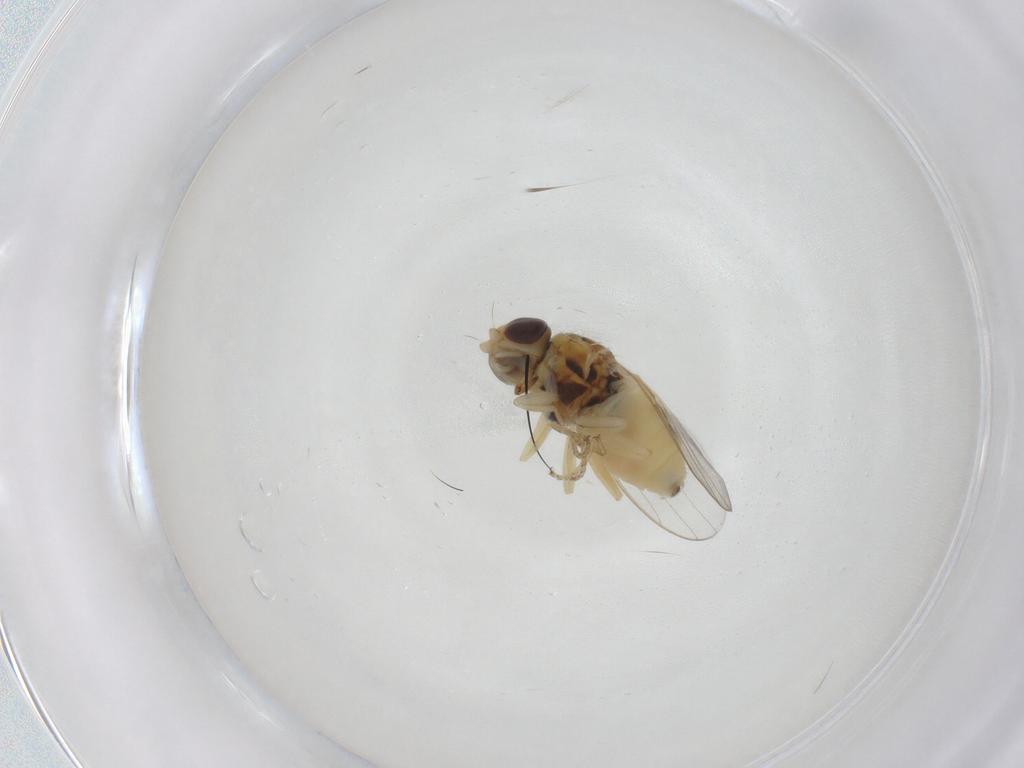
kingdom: Animalia
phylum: Arthropoda
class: Insecta
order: Diptera
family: Chloropidae
